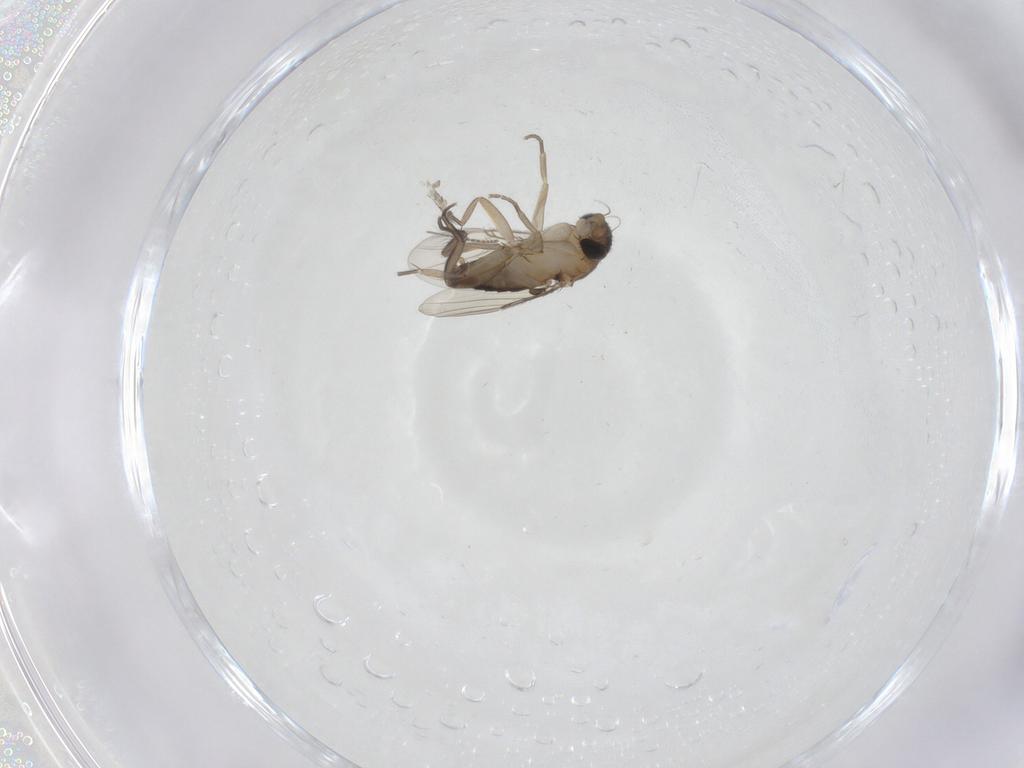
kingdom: Animalia
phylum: Arthropoda
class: Insecta
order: Diptera
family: Phoridae
